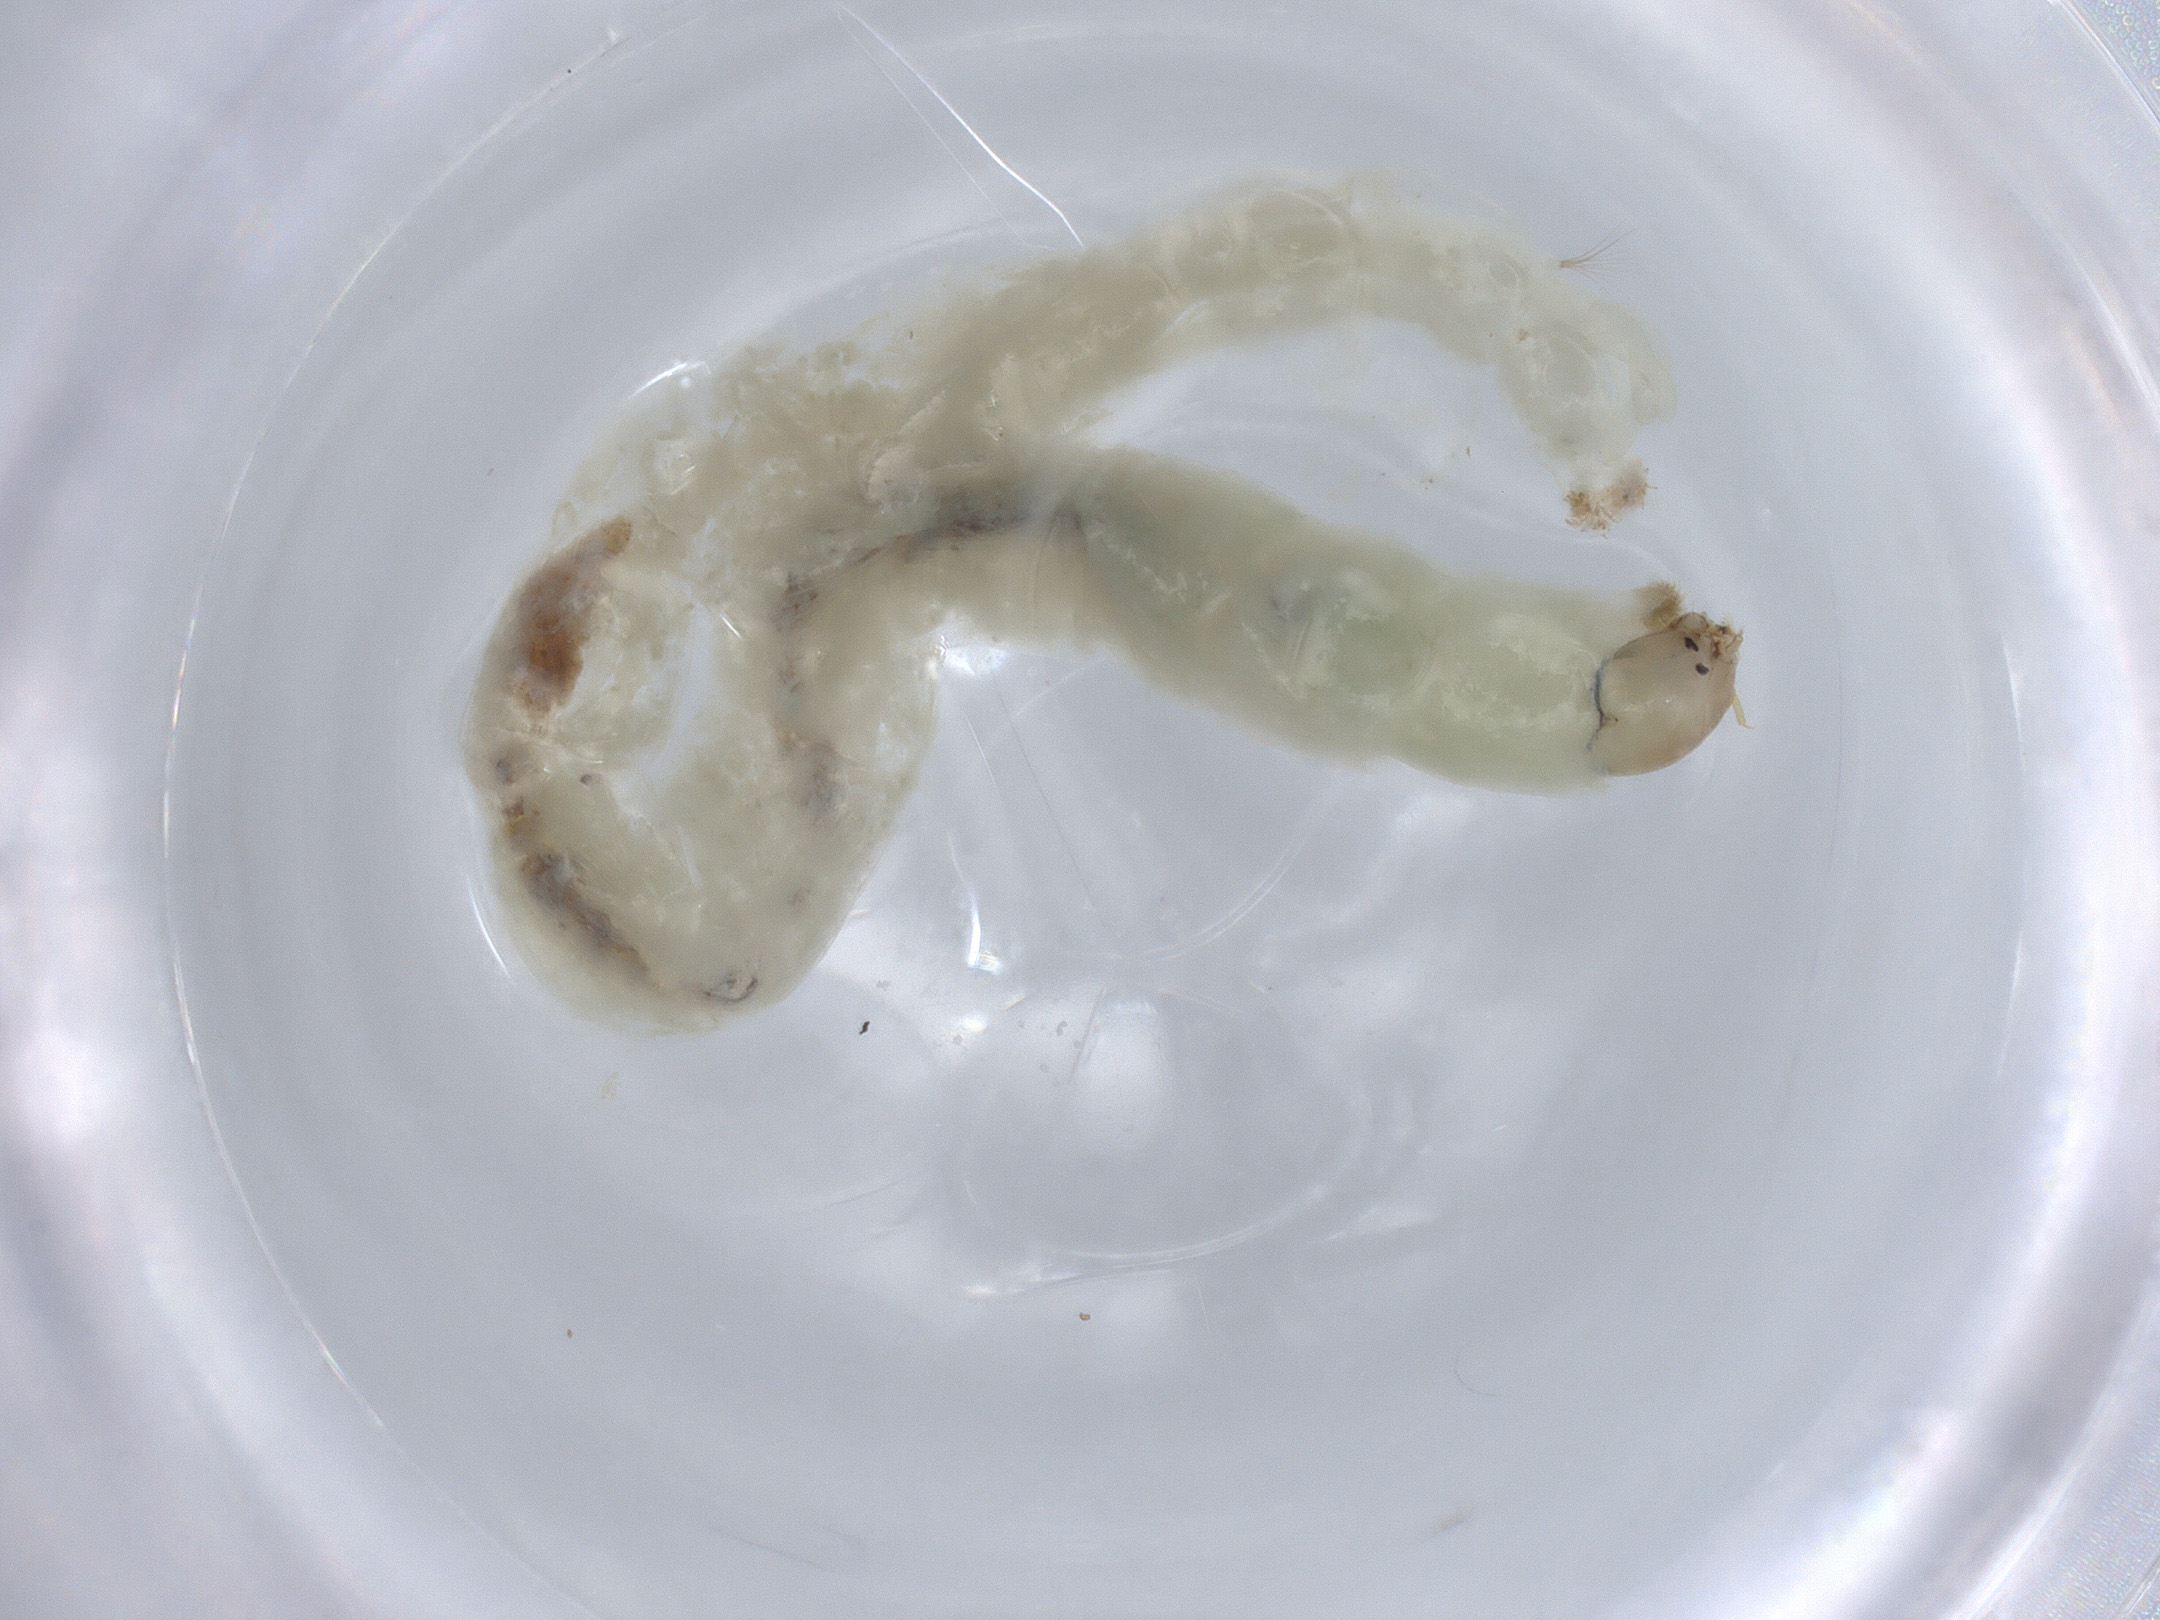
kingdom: Animalia
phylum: Arthropoda
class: Insecta
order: Diptera
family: Chironomidae
